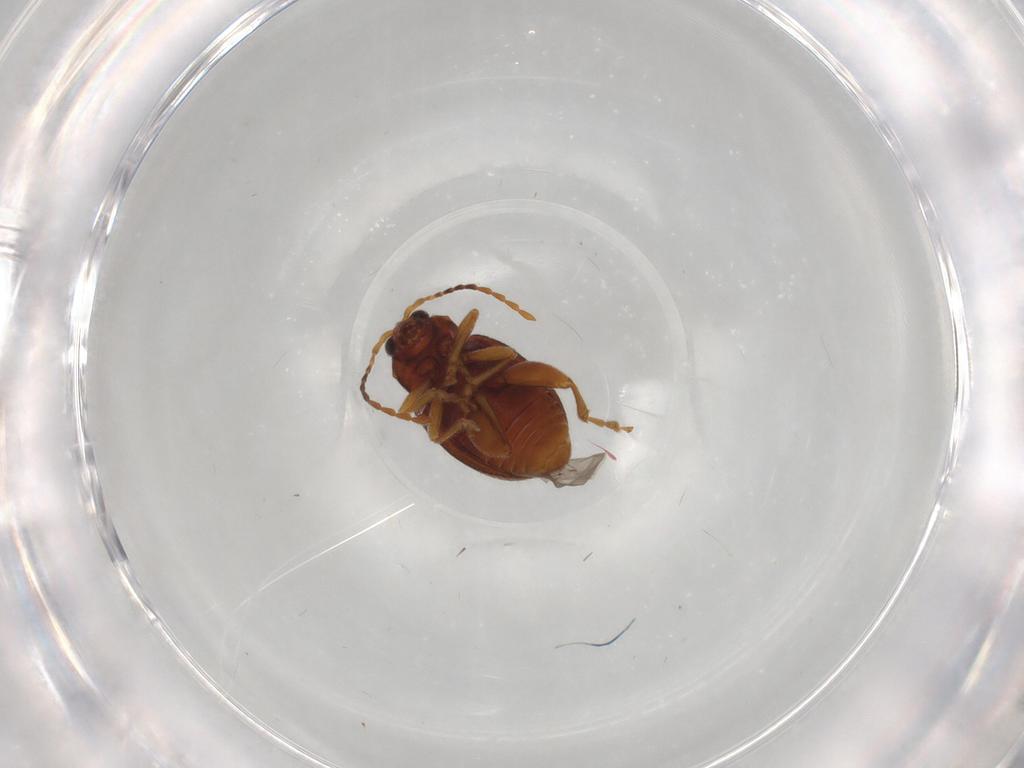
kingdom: Animalia
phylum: Arthropoda
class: Insecta
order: Coleoptera
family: Chrysomelidae
